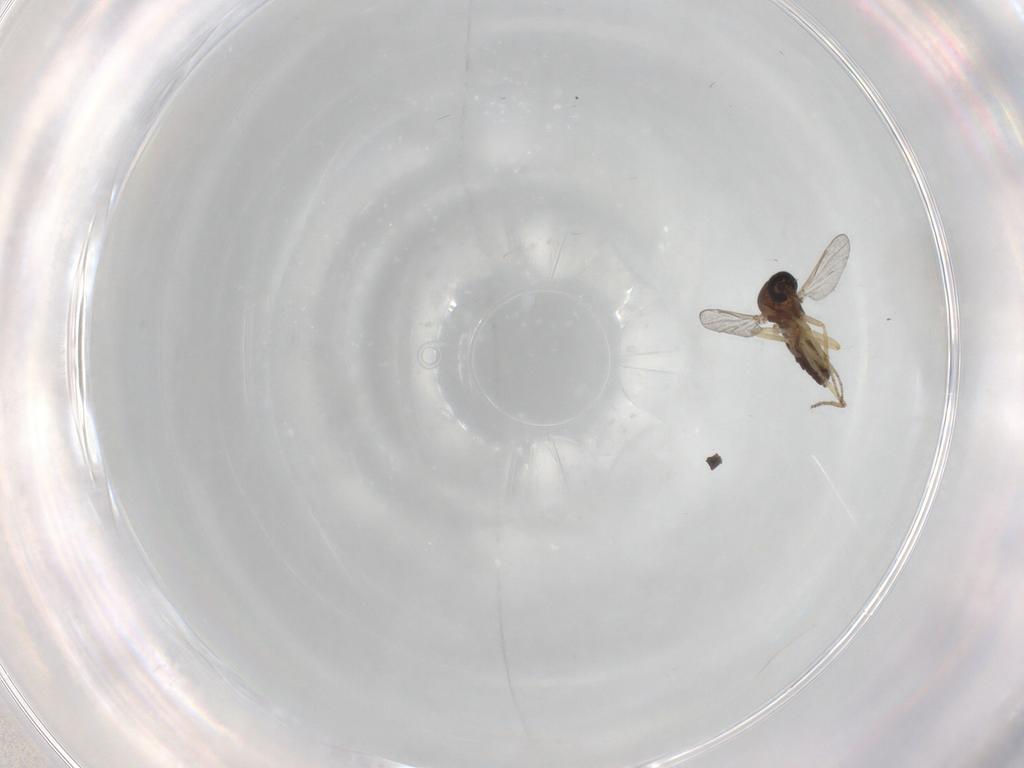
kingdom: Animalia
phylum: Arthropoda
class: Insecta
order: Diptera
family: Ceratopogonidae
